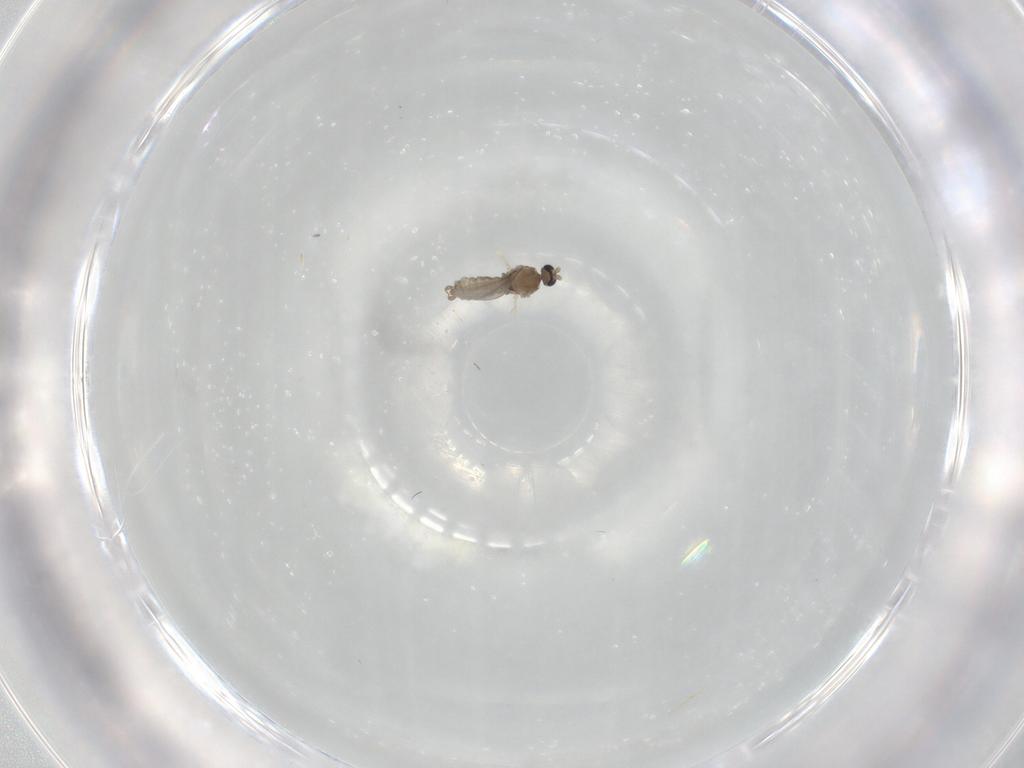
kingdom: Animalia
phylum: Arthropoda
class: Insecta
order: Diptera
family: Cecidomyiidae
